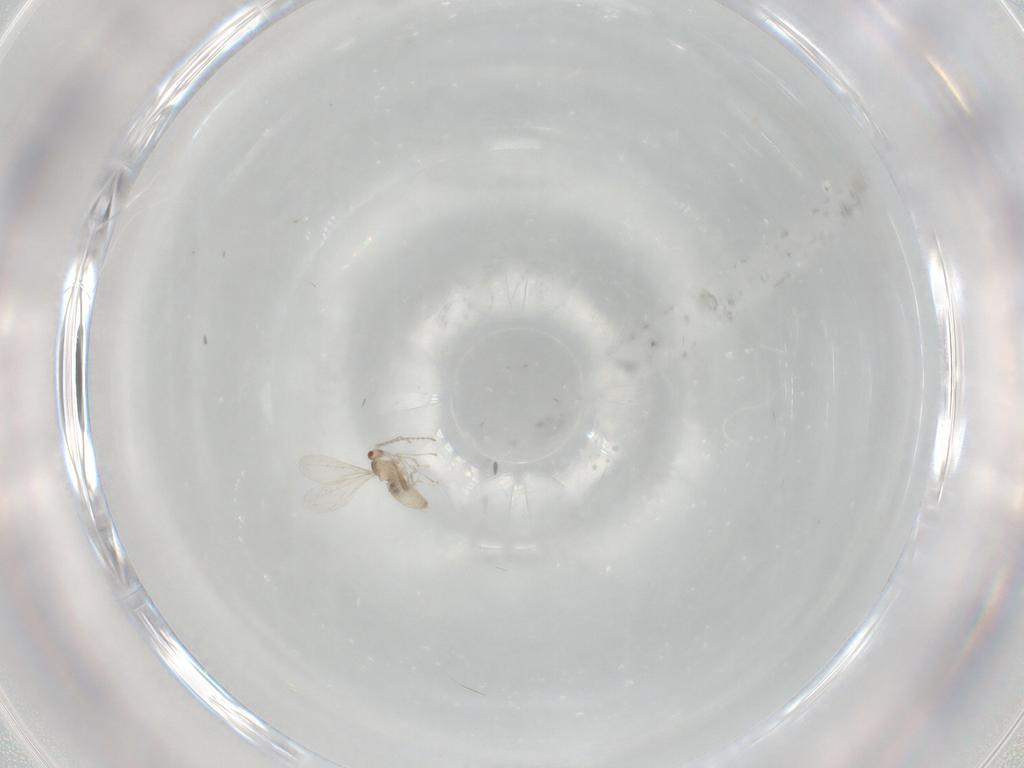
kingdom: Animalia
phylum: Arthropoda
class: Insecta
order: Diptera
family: Cecidomyiidae
